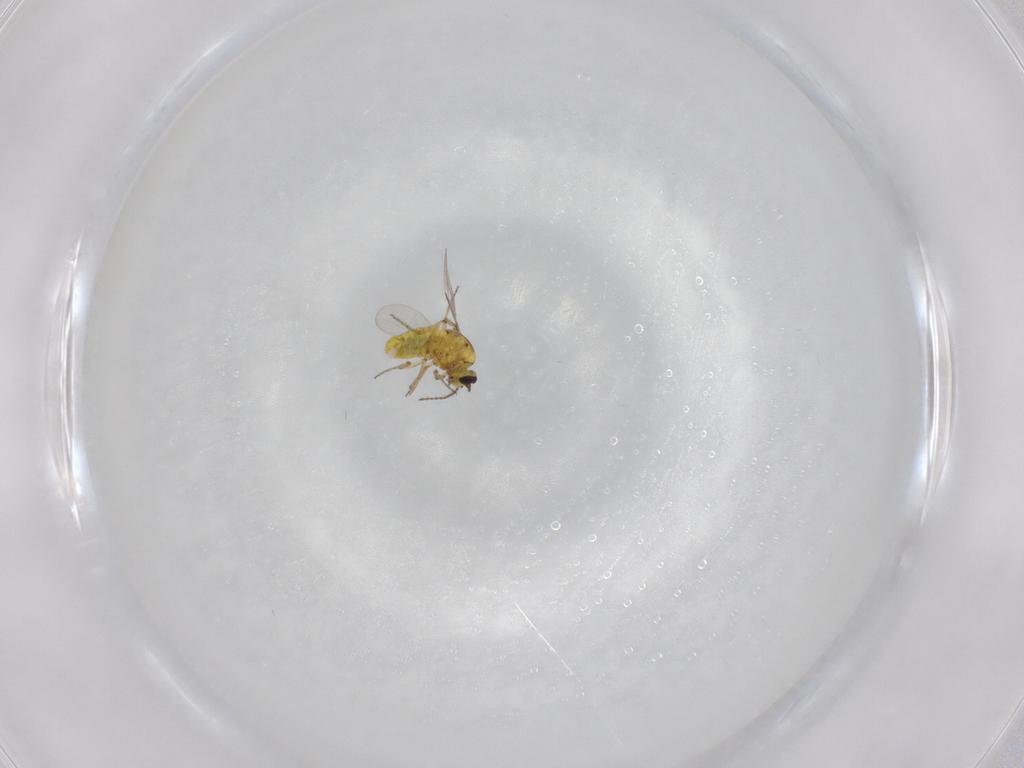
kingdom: Animalia
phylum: Arthropoda
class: Insecta
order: Diptera
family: Ceratopogonidae
